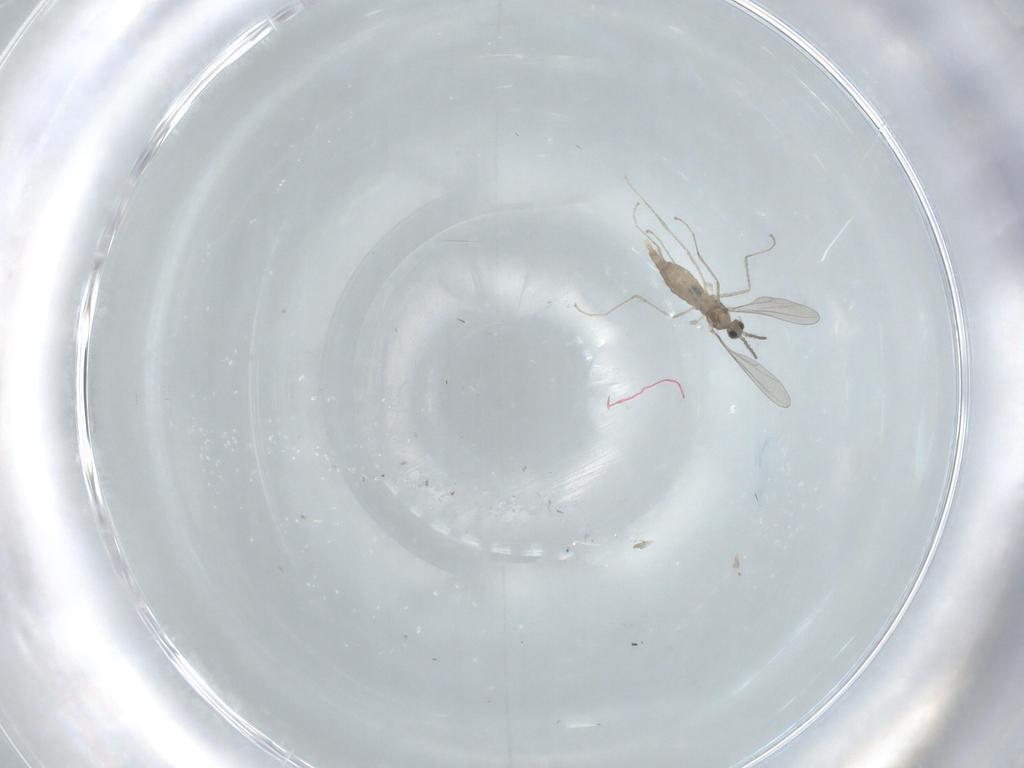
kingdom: Animalia
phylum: Arthropoda
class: Insecta
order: Diptera
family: Chironomidae
